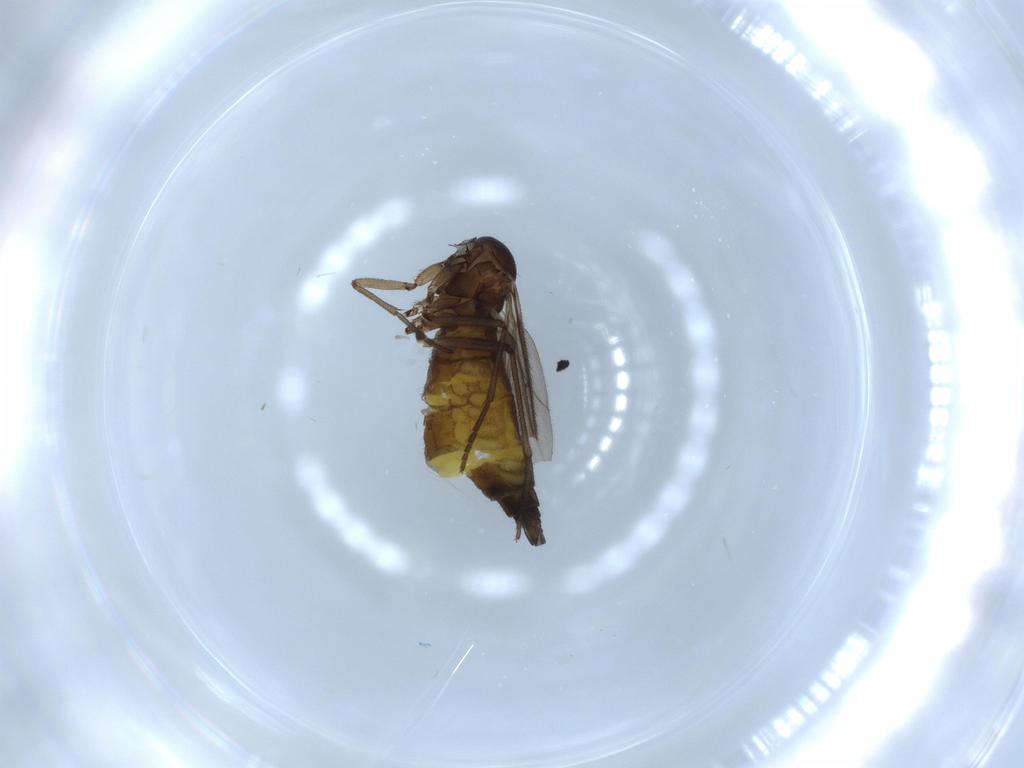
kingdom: Animalia
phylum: Arthropoda
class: Insecta
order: Diptera
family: Sciaridae
